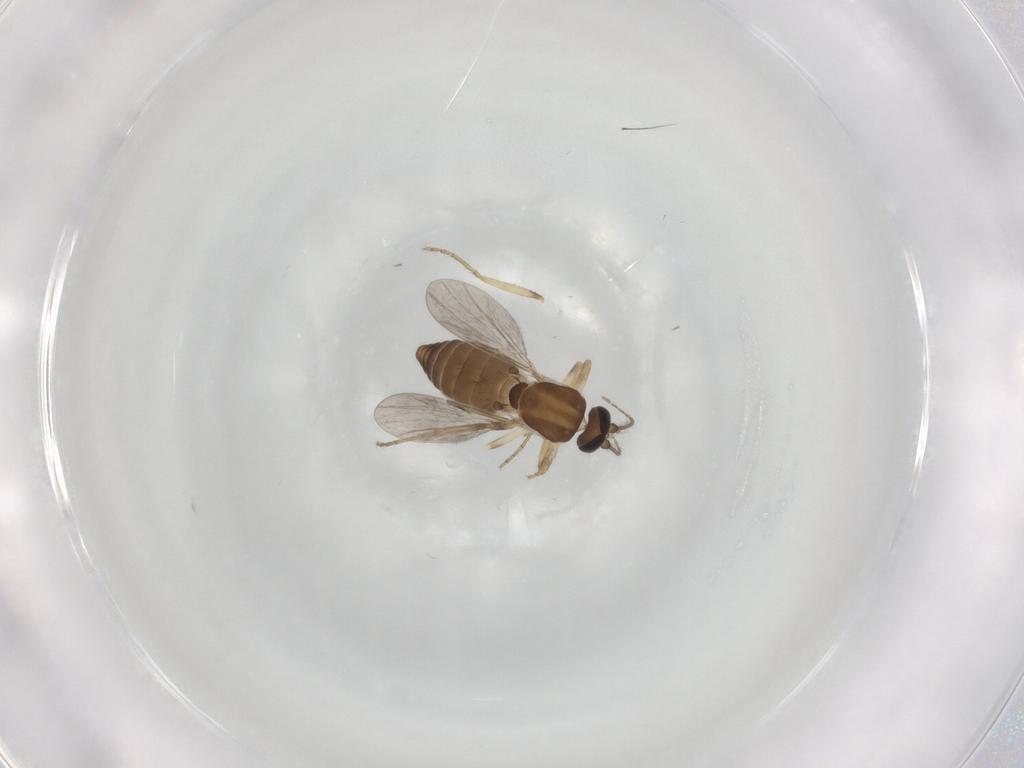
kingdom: Animalia
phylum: Arthropoda
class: Insecta
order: Diptera
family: Ceratopogonidae
